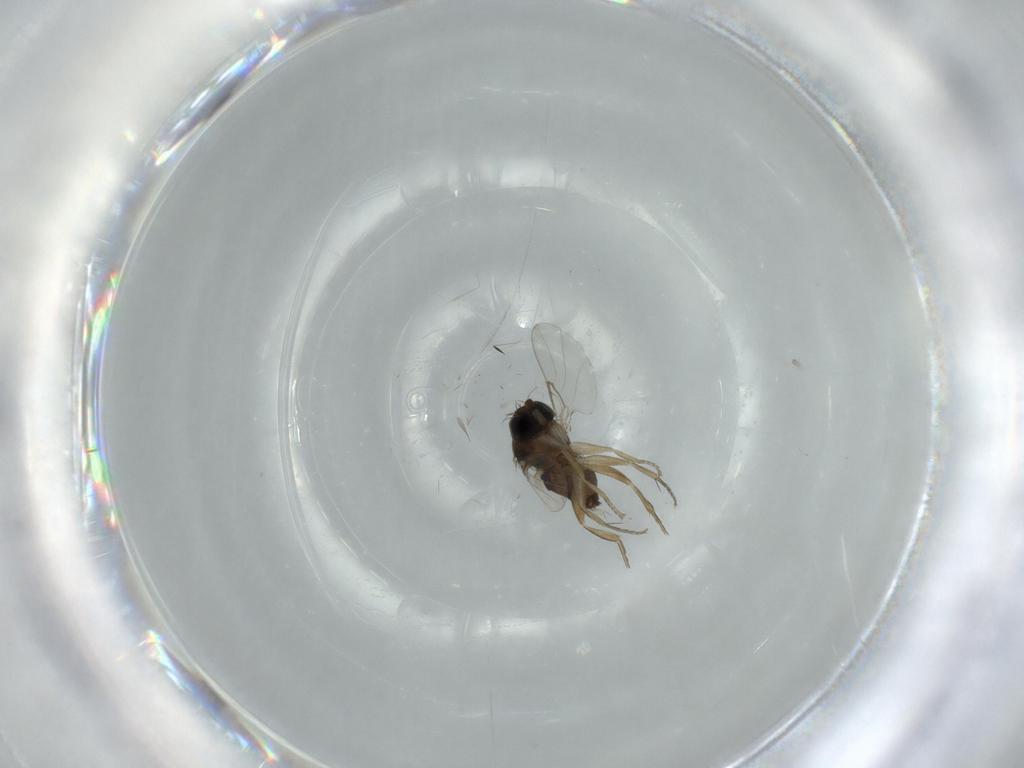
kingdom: Animalia
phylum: Arthropoda
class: Insecta
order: Diptera
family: Phoridae
